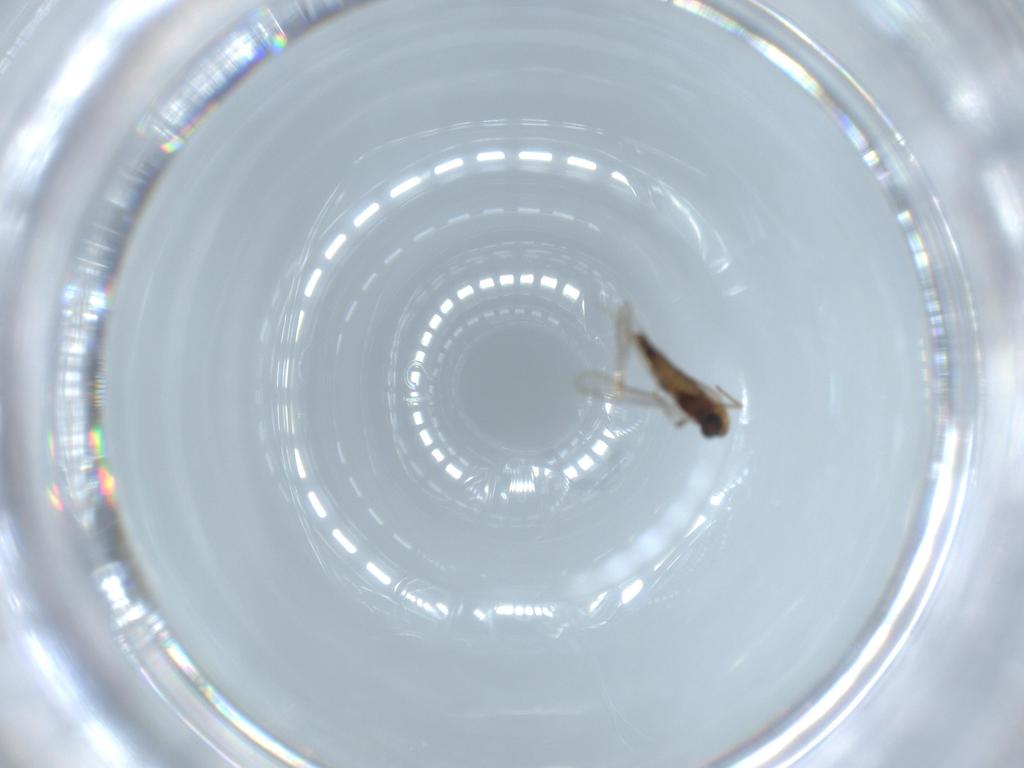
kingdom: Animalia
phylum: Arthropoda
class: Insecta
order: Diptera
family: Chironomidae
